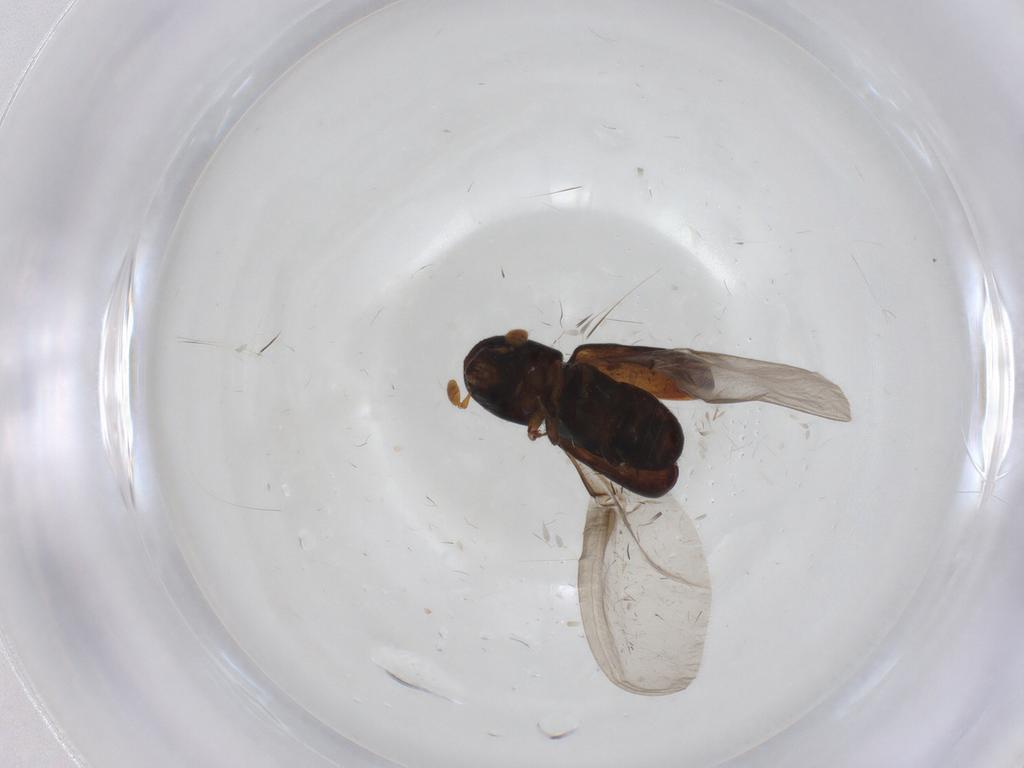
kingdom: Animalia
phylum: Arthropoda
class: Insecta
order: Coleoptera
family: Curculionidae
